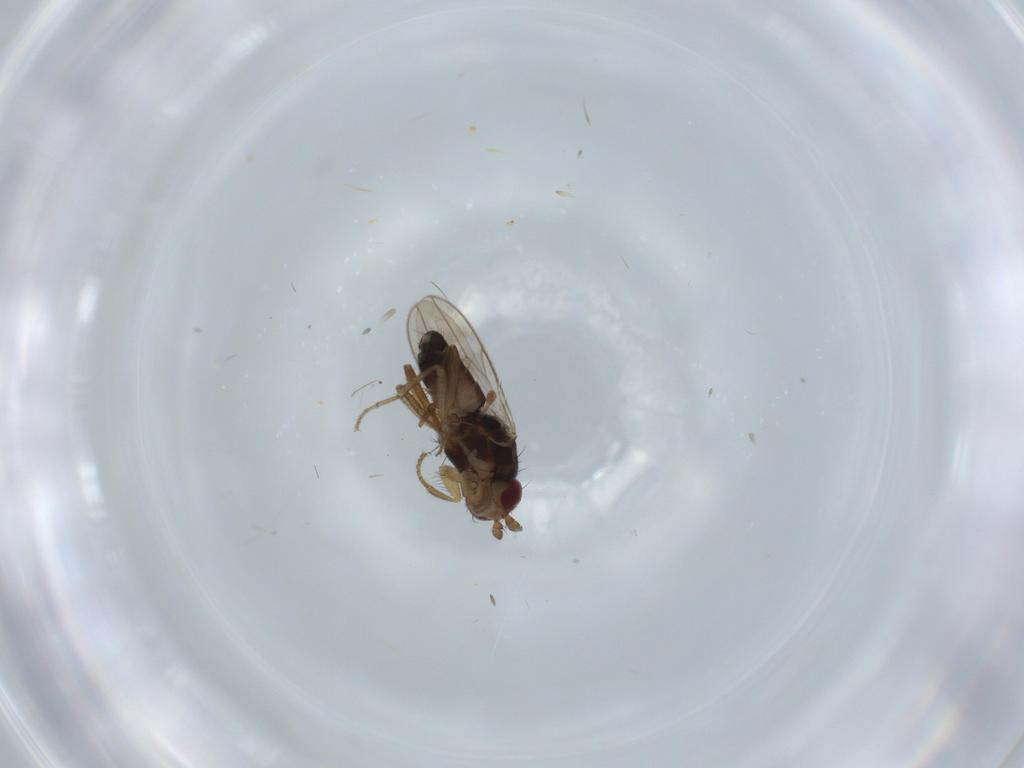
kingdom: Animalia
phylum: Arthropoda
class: Insecta
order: Diptera
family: Sphaeroceridae
